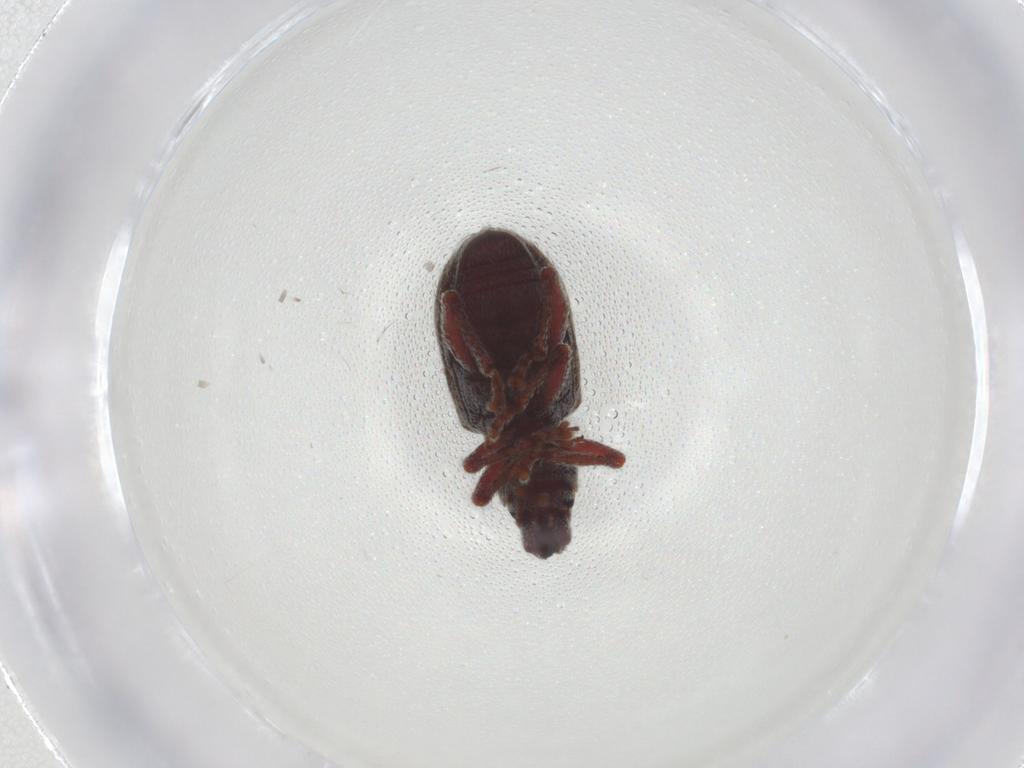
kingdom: Animalia
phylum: Arthropoda
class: Insecta
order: Coleoptera
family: Curculionidae
